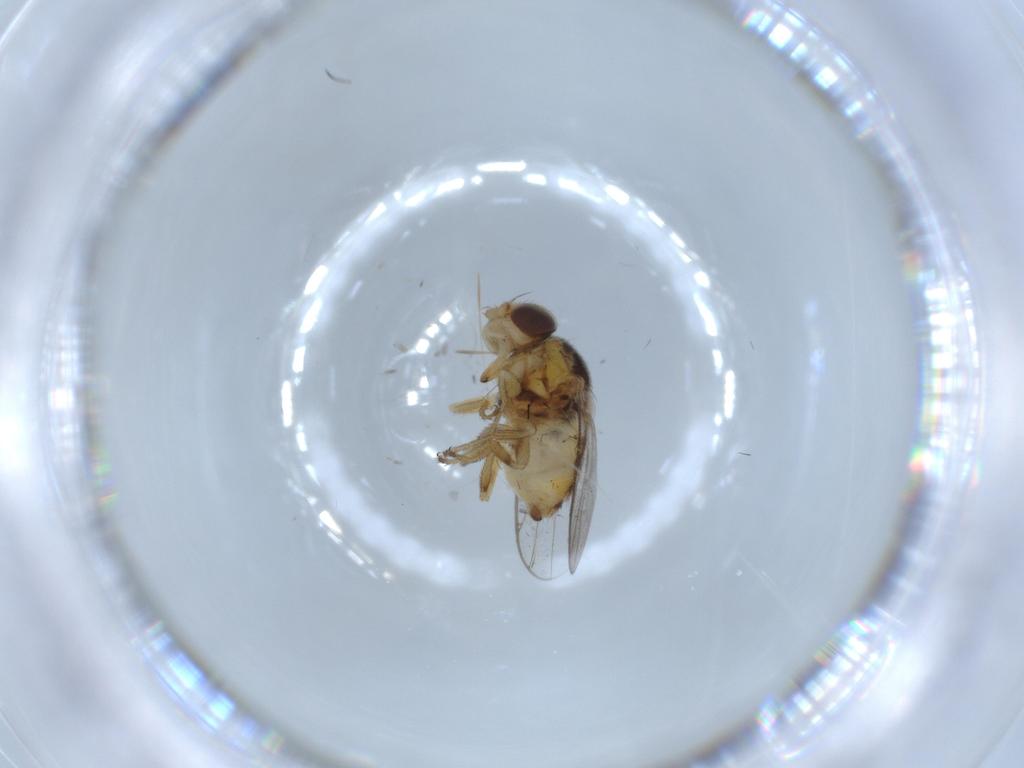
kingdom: Animalia
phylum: Arthropoda
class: Insecta
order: Diptera
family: Chloropidae
